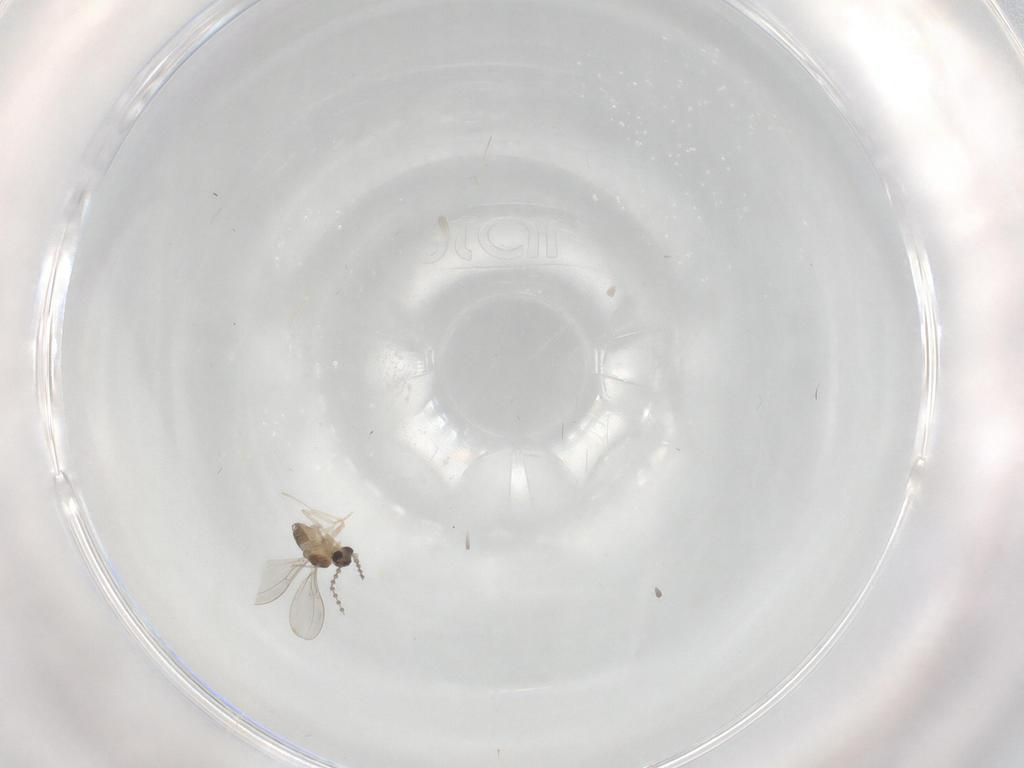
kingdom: Animalia
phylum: Arthropoda
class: Insecta
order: Diptera
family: Cecidomyiidae
